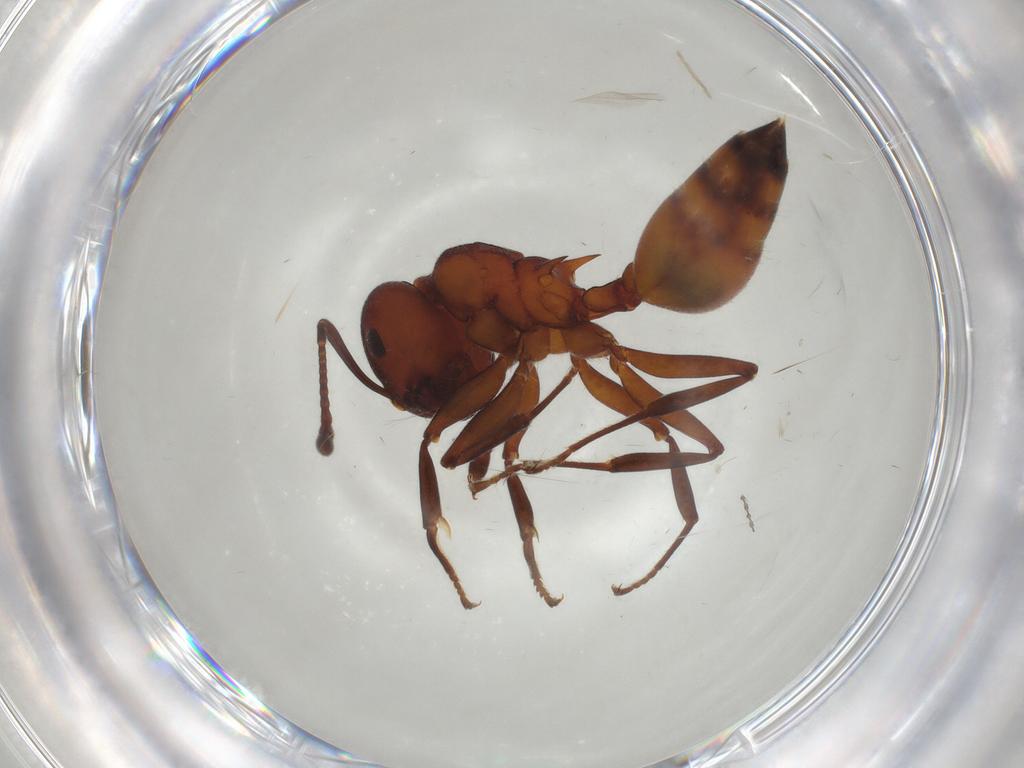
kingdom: Animalia
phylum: Arthropoda
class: Insecta
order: Hymenoptera
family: Formicidae
